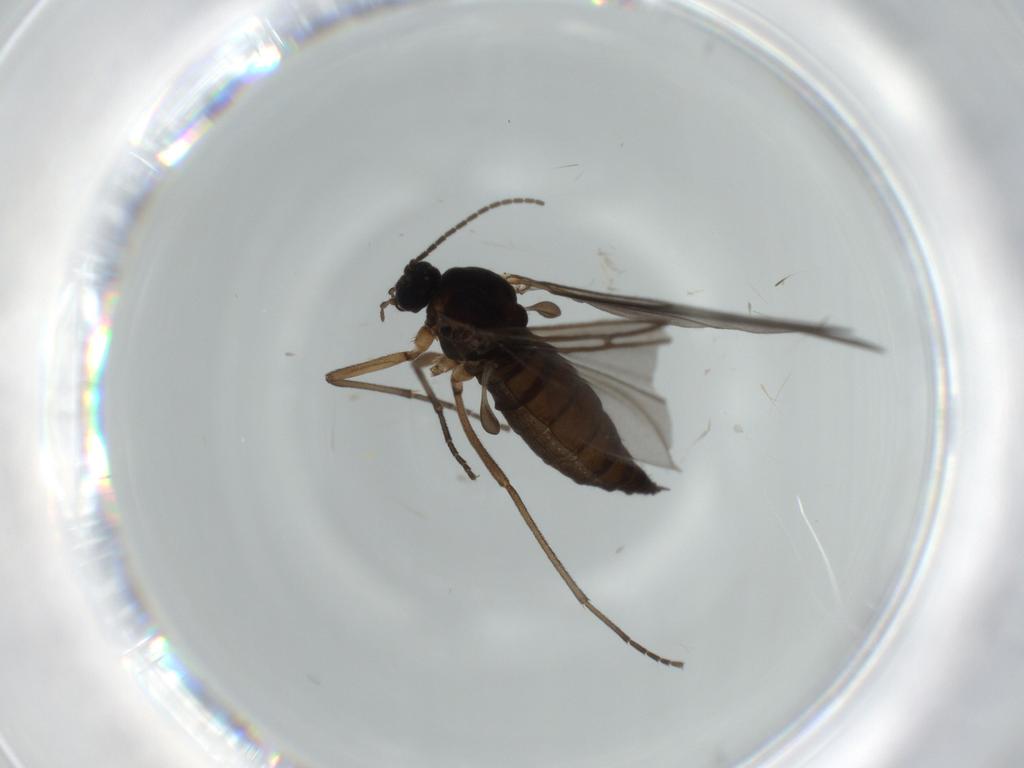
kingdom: Animalia
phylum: Arthropoda
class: Insecta
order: Diptera
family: Sciaridae
